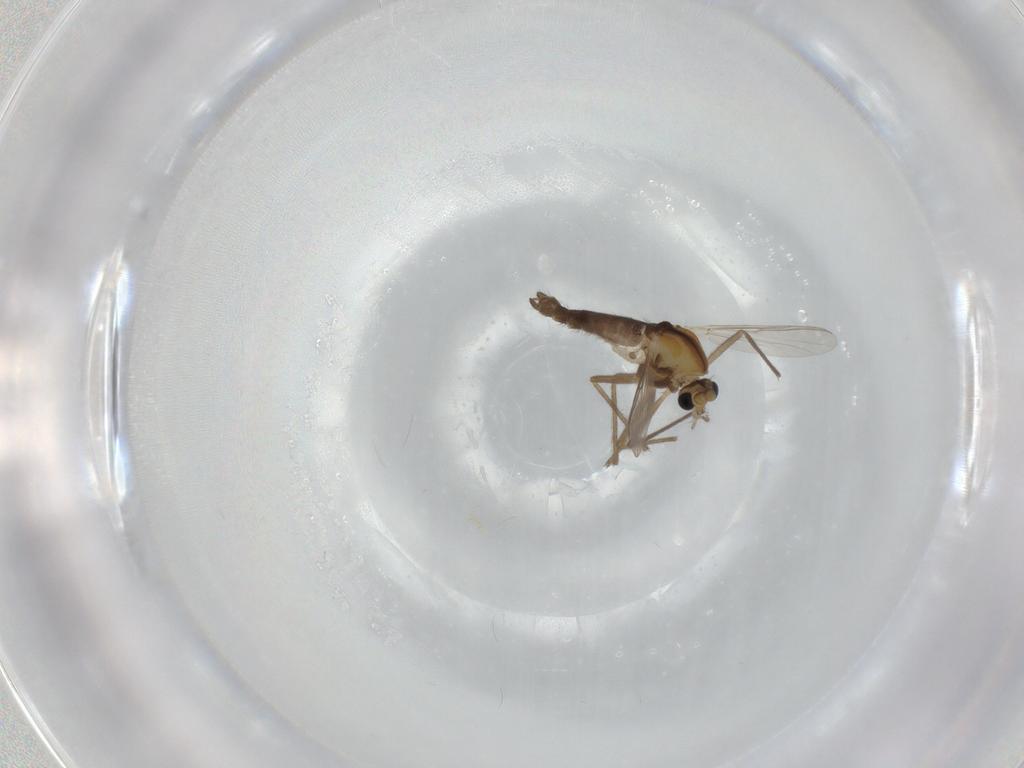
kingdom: Animalia
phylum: Arthropoda
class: Insecta
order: Diptera
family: Chironomidae
